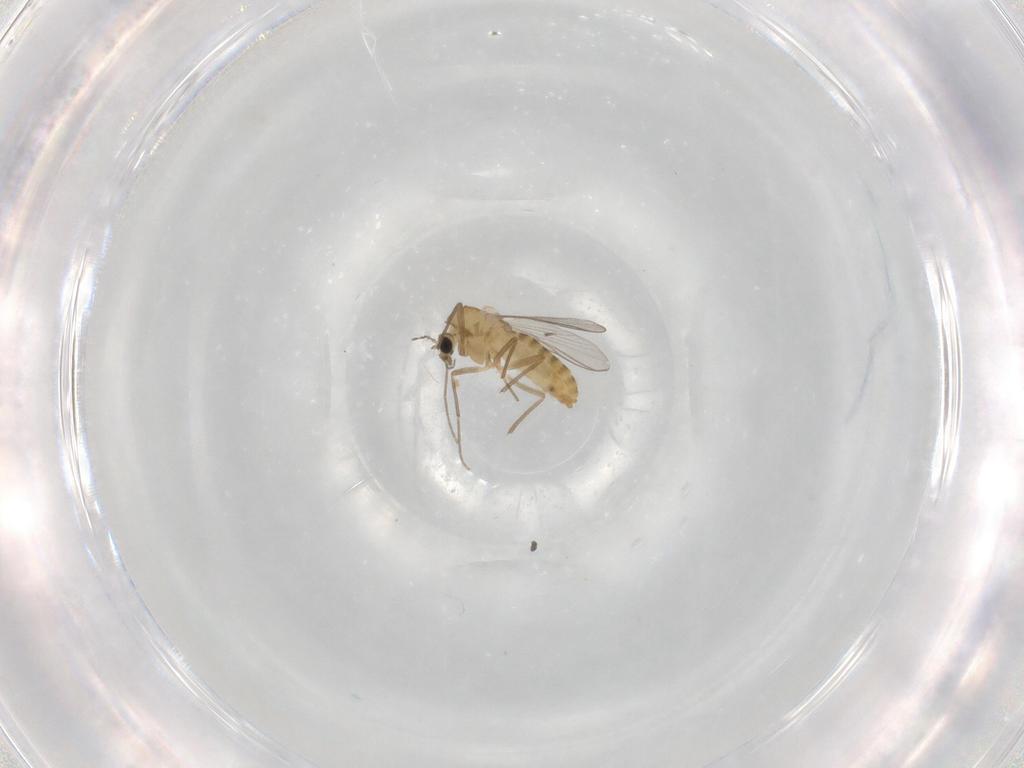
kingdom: Animalia
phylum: Arthropoda
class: Insecta
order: Diptera
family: Chironomidae
